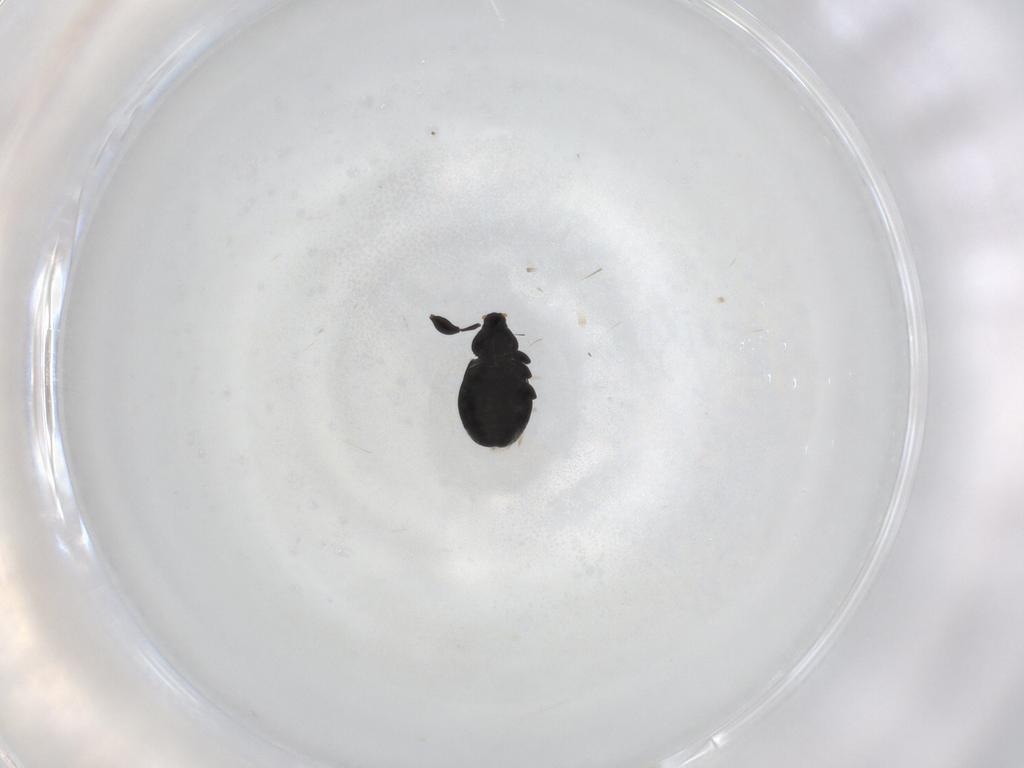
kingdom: Animalia
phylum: Arthropoda
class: Insecta
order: Coleoptera
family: Curculionidae
